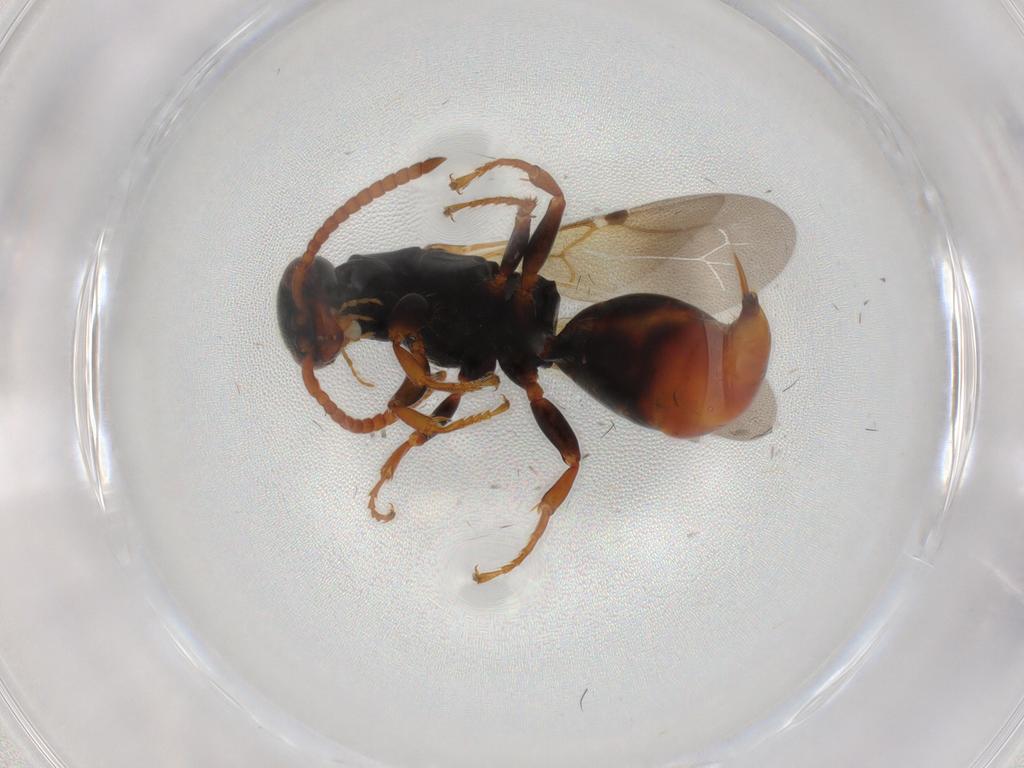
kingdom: Animalia
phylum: Arthropoda
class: Insecta
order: Hymenoptera
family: Bethylidae
